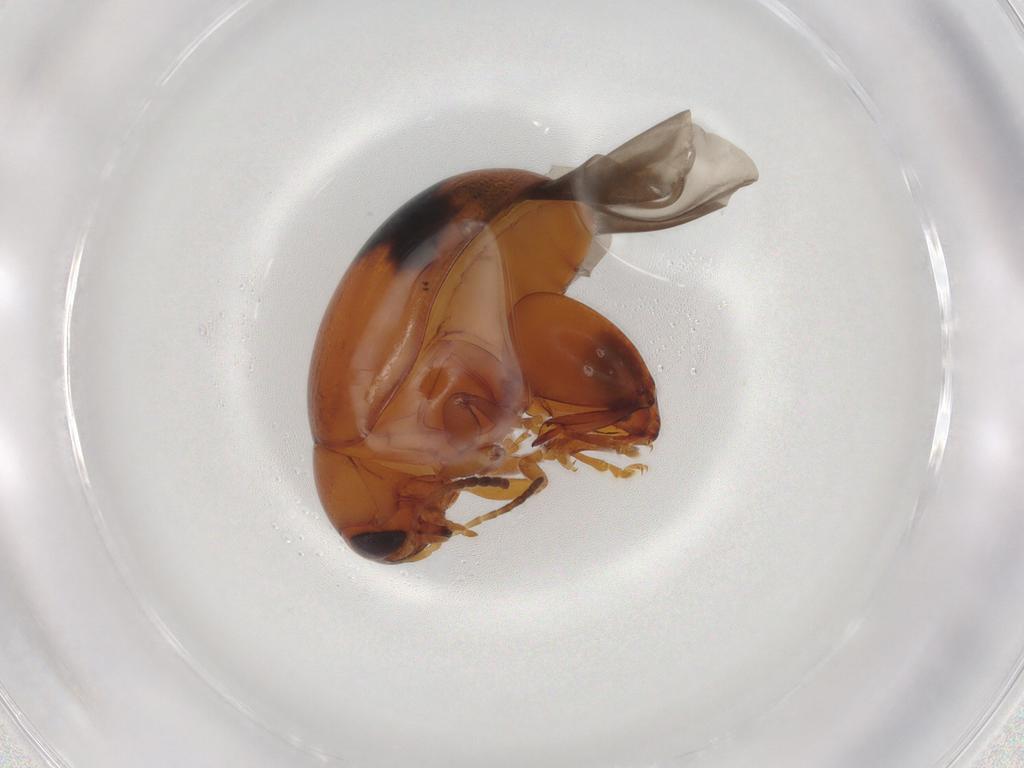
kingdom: Animalia
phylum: Arthropoda
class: Insecta
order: Coleoptera
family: Chrysomelidae
